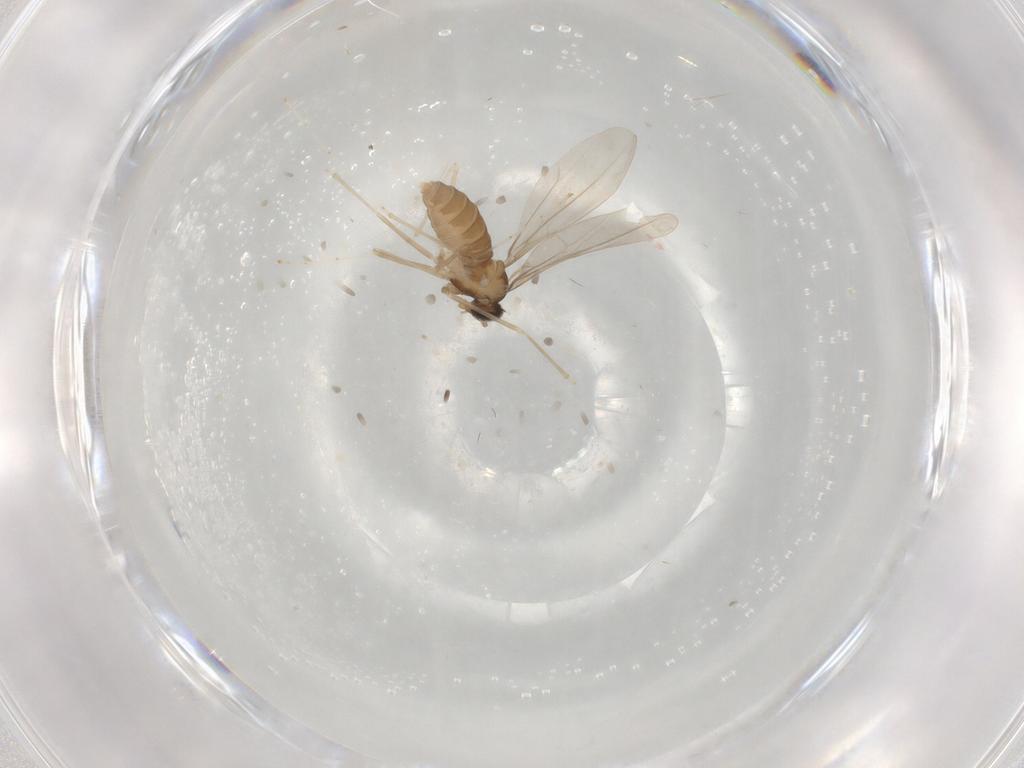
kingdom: Animalia
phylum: Arthropoda
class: Insecta
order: Diptera
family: Cecidomyiidae
